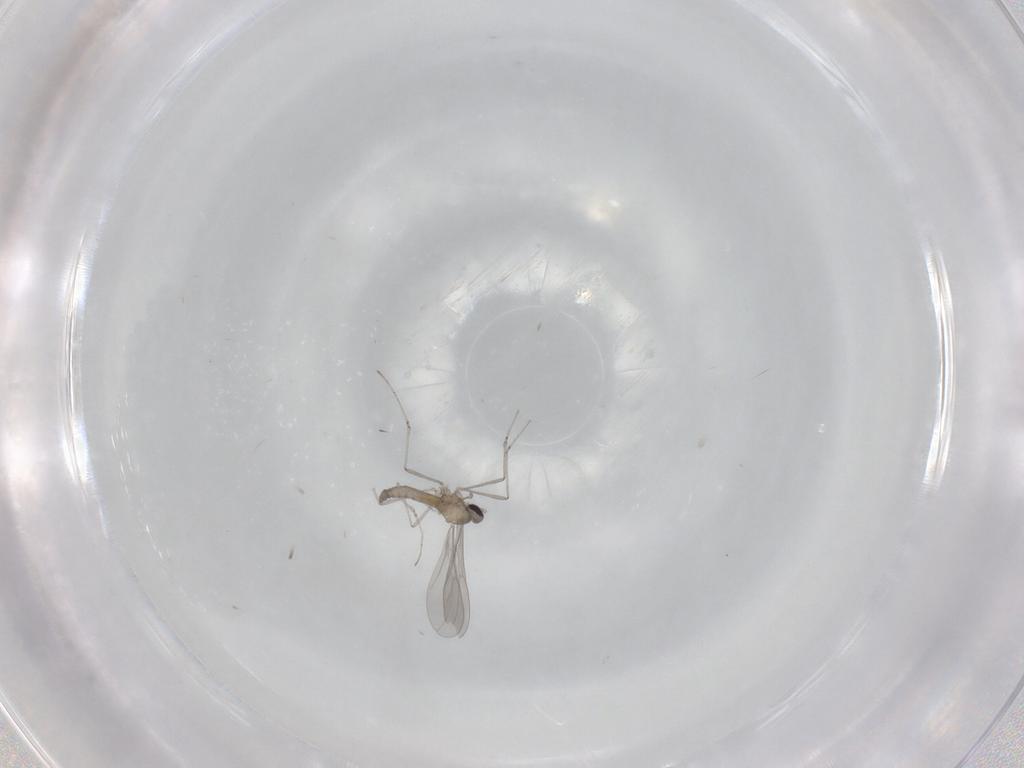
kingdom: Animalia
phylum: Arthropoda
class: Insecta
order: Diptera
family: Cecidomyiidae
